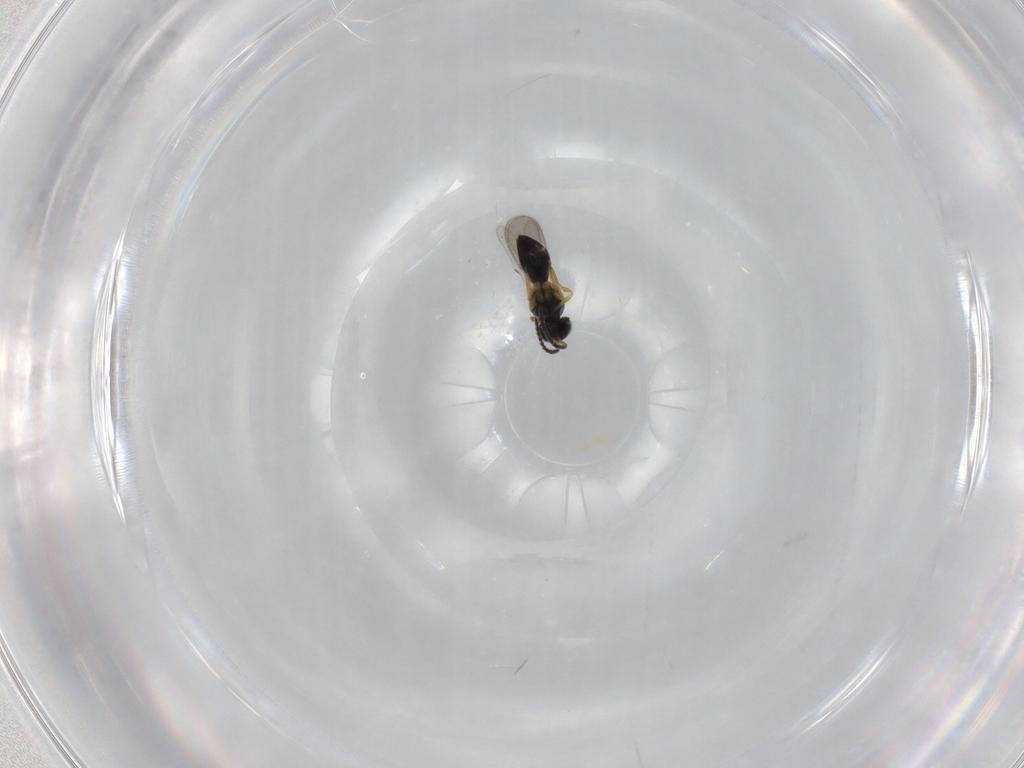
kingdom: Animalia
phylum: Arthropoda
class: Insecta
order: Hymenoptera
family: Scelionidae
